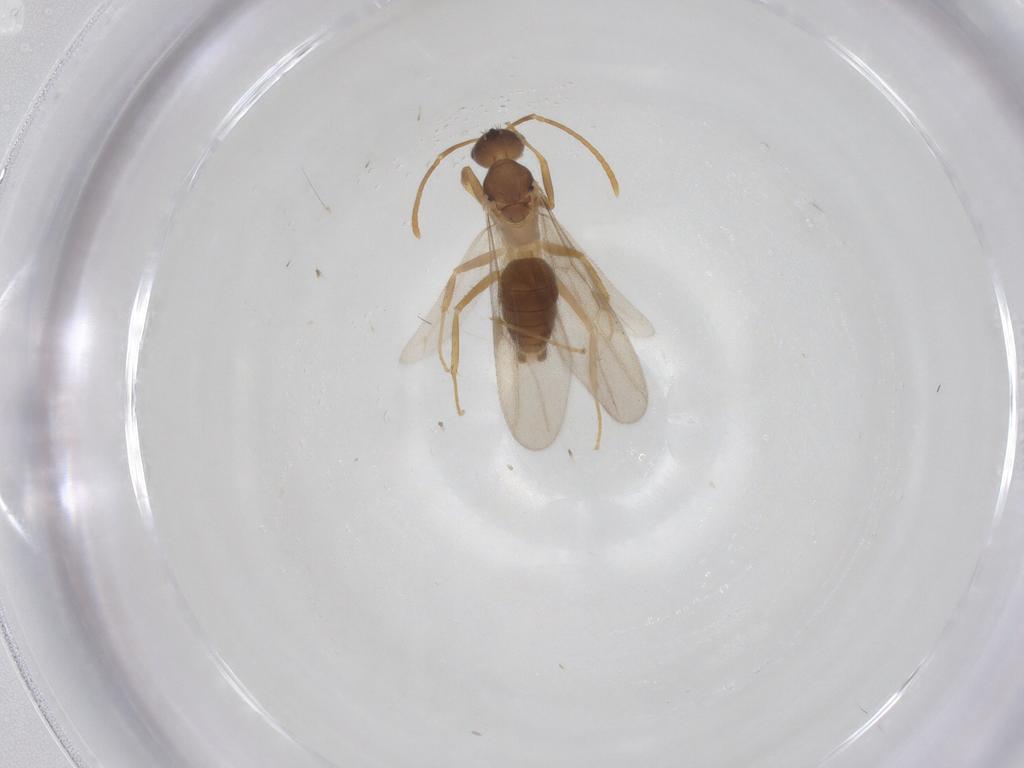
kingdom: Animalia
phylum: Arthropoda
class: Insecta
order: Hymenoptera
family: Formicidae
